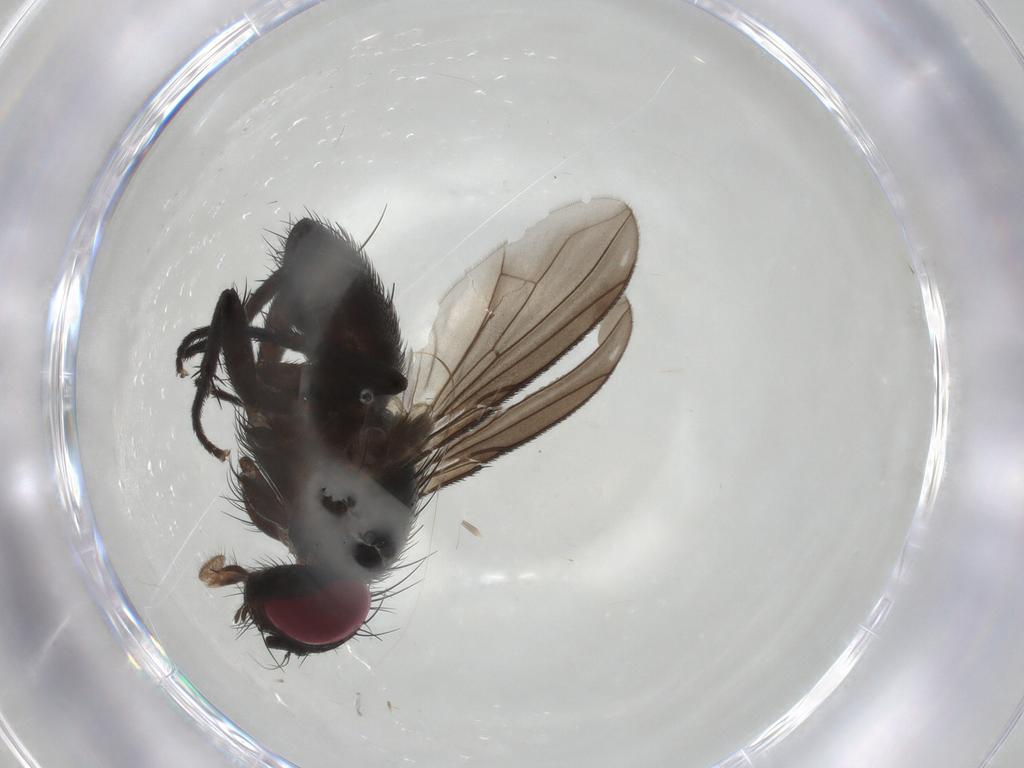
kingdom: Animalia
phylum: Arthropoda
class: Insecta
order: Diptera
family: Calliphoridae
